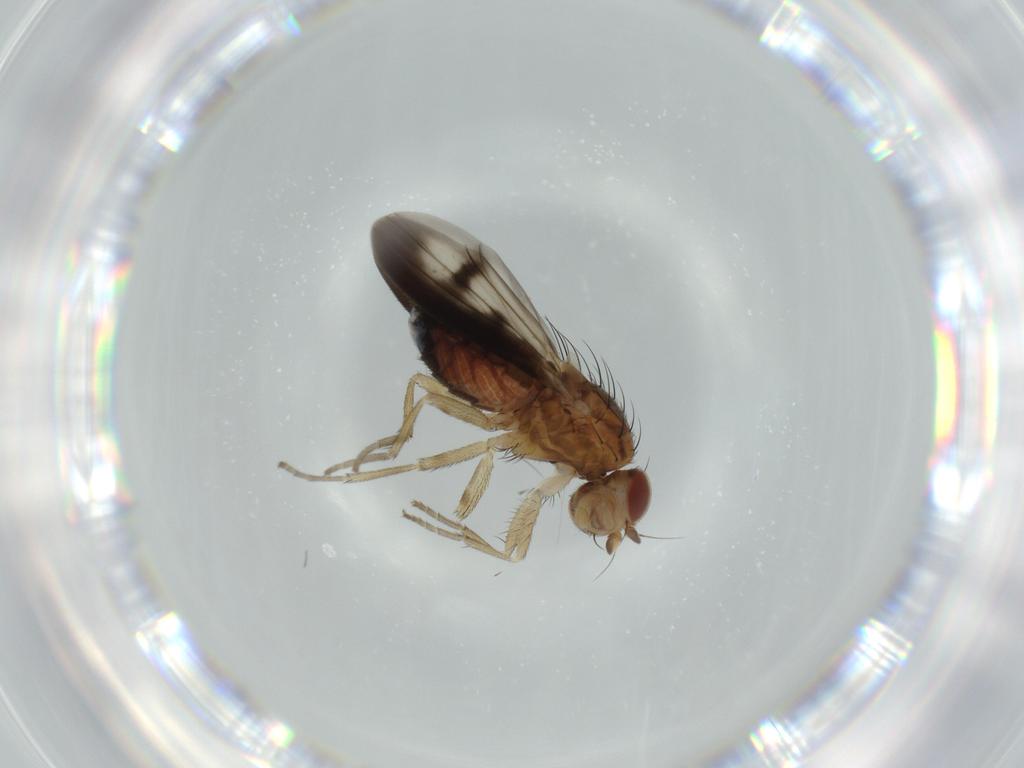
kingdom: Animalia
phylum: Arthropoda
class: Insecta
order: Diptera
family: Heleomyzidae
